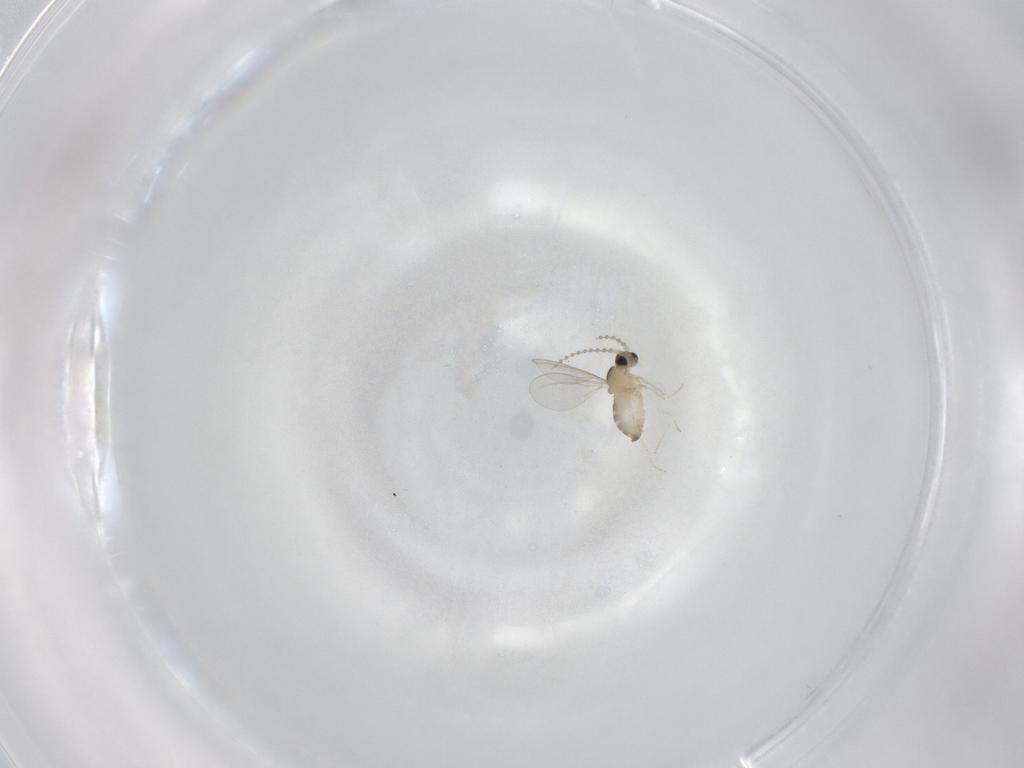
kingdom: Animalia
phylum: Arthropoda
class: Insecta
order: Diptera
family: Cecidomyiidae
